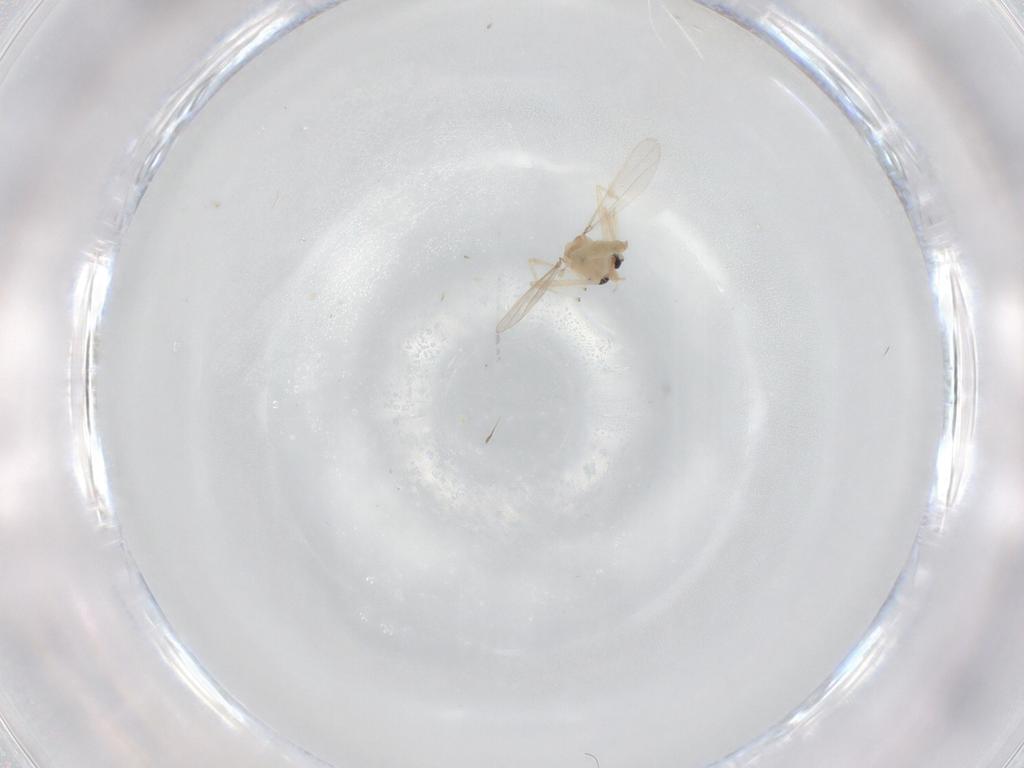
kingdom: Animalia
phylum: Arthropoda
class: Insecta
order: Diptera
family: Chironomidae
